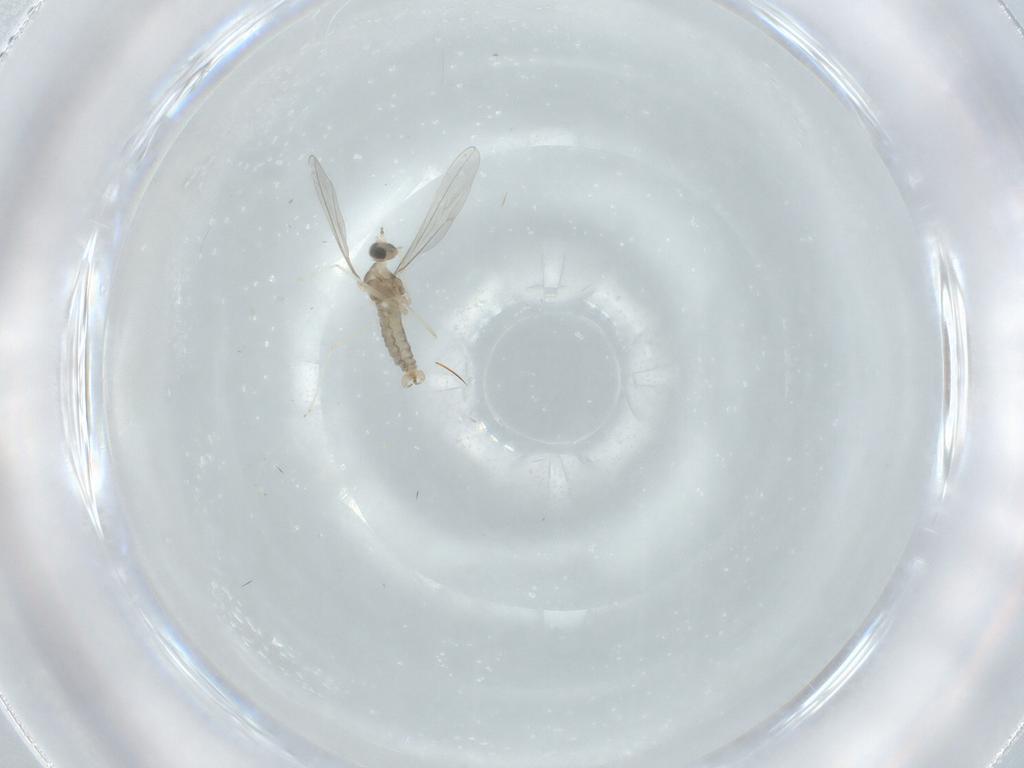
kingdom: Animalia
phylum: Arthropoda
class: Insecta
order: Diptera
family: Cecidomyiidae
